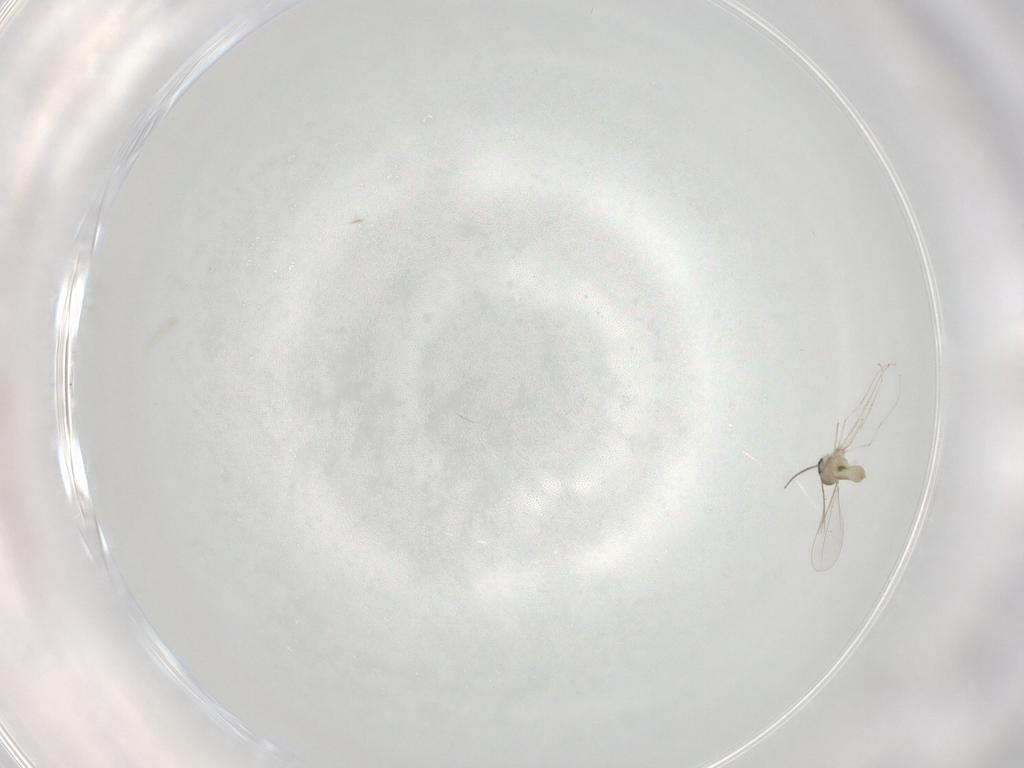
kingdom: Animalia
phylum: Arthropoda
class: Insecta
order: Diptera
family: Cecidomyiidae
